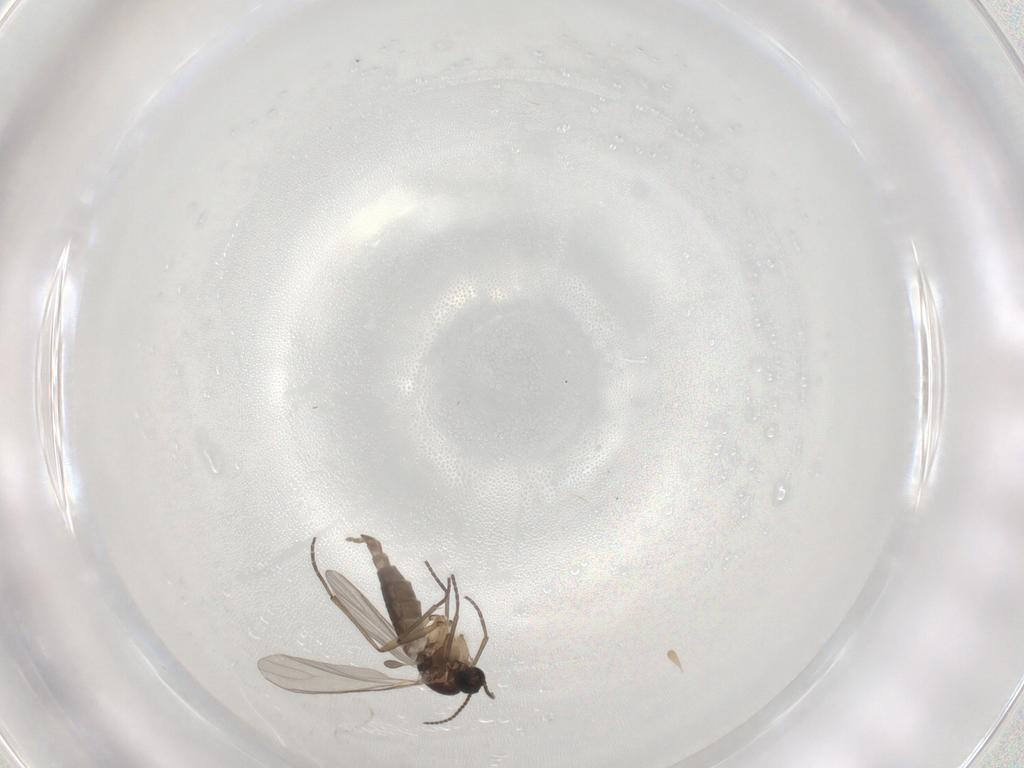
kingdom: Animalia
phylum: Arthropoda
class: Insecta
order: Diptera
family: Sciaridae
